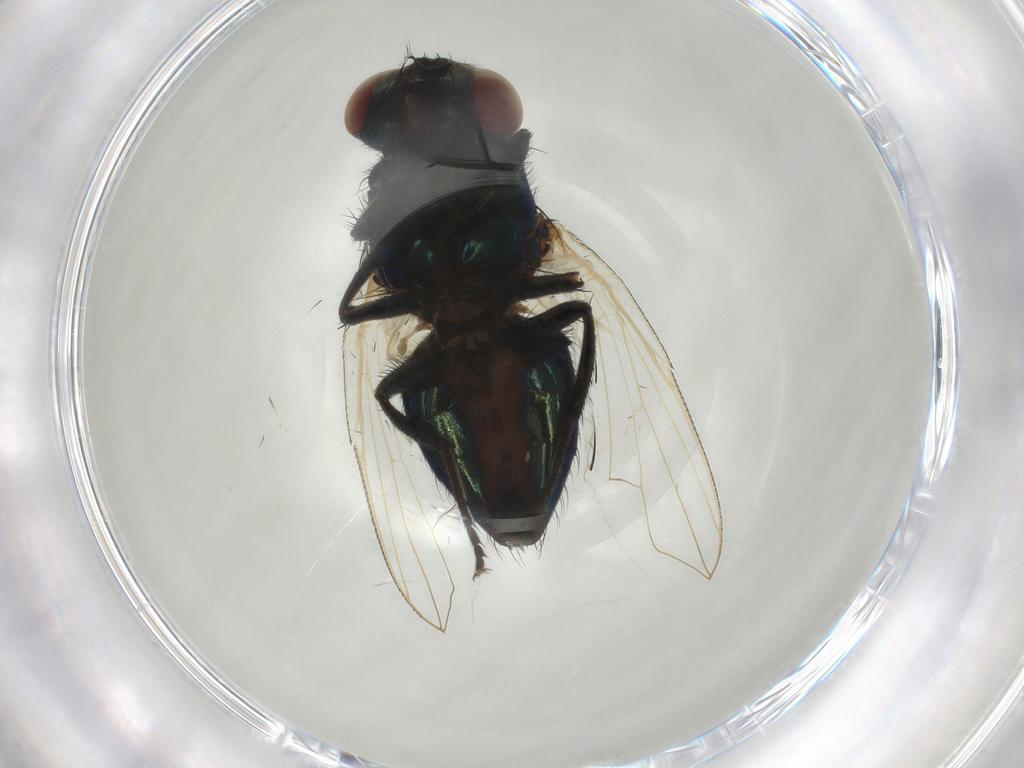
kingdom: Animalia
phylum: Arthropoda
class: Insecta
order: Diptera
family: Muscidae
